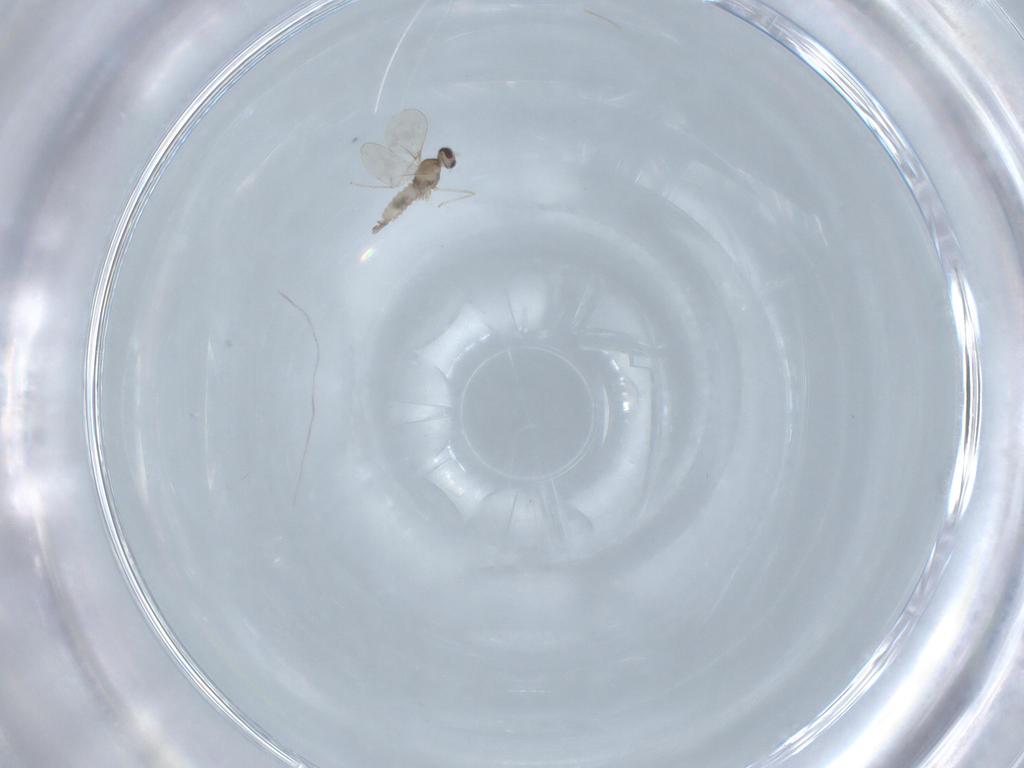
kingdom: Animalia
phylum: Arthropoda
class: Insecta
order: Diptera
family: Cecidomyiidae
